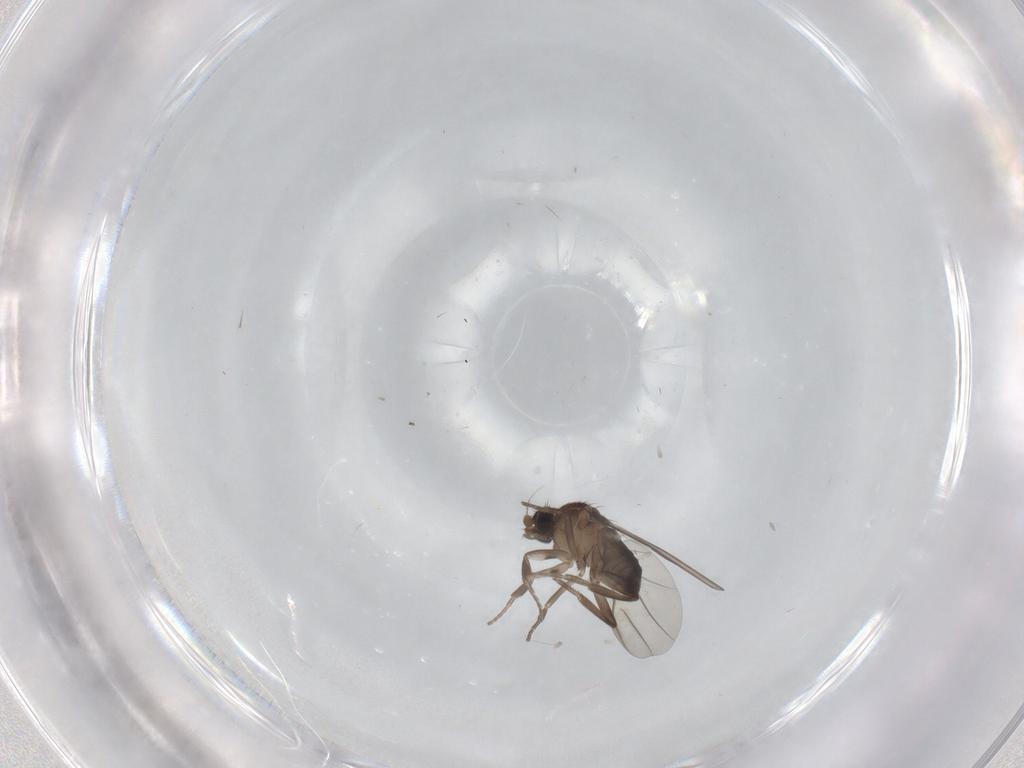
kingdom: Animalia
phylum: Arthropoda
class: Insecta
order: Diptera
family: Phoridae
